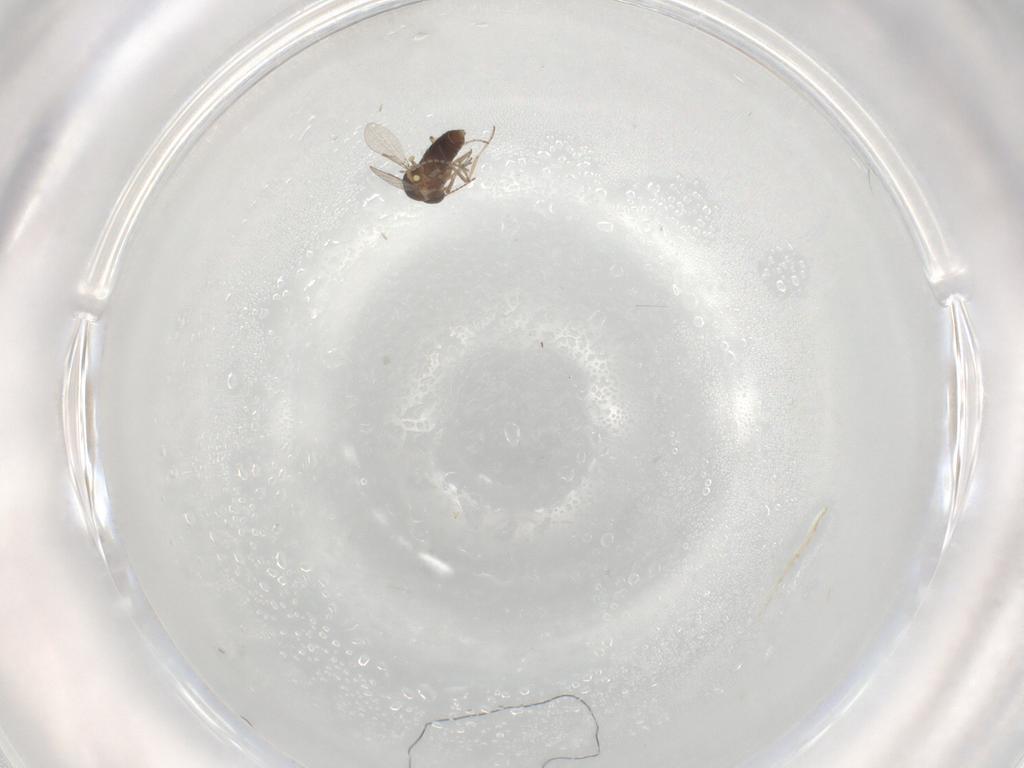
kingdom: Animalia
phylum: Arthropoda
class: Insecta
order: Diptera
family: Ceratopogonidae
